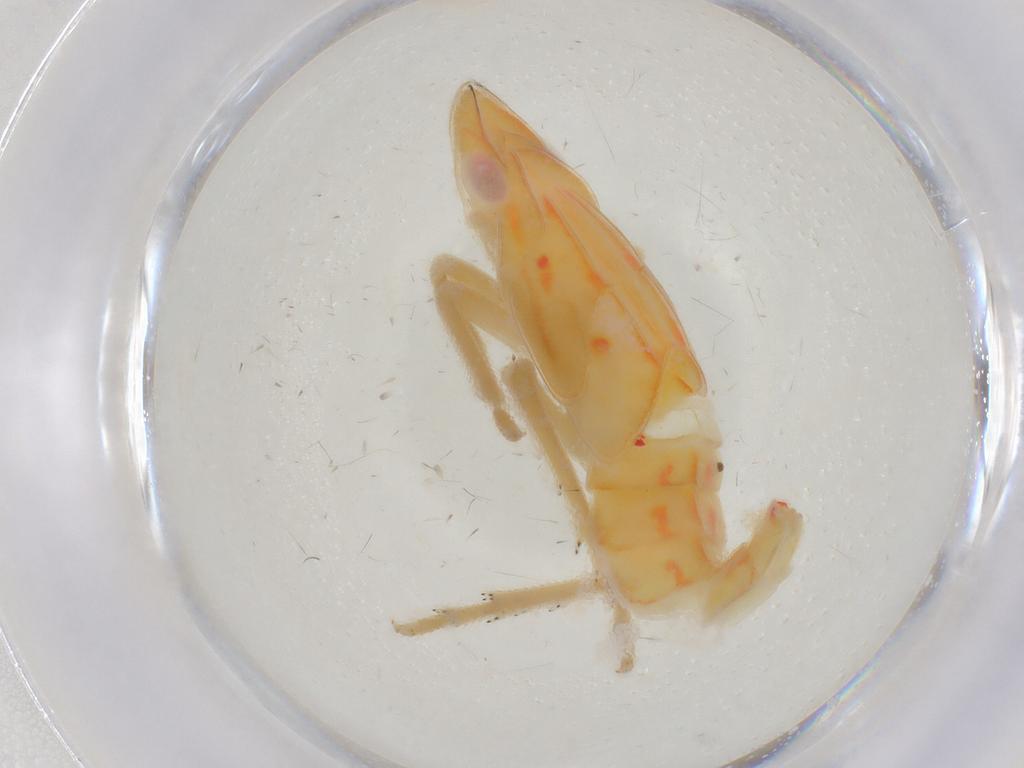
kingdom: Animalia
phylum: Arthropoda
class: Insecta
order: Hemiptera
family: Tropiduchidae
